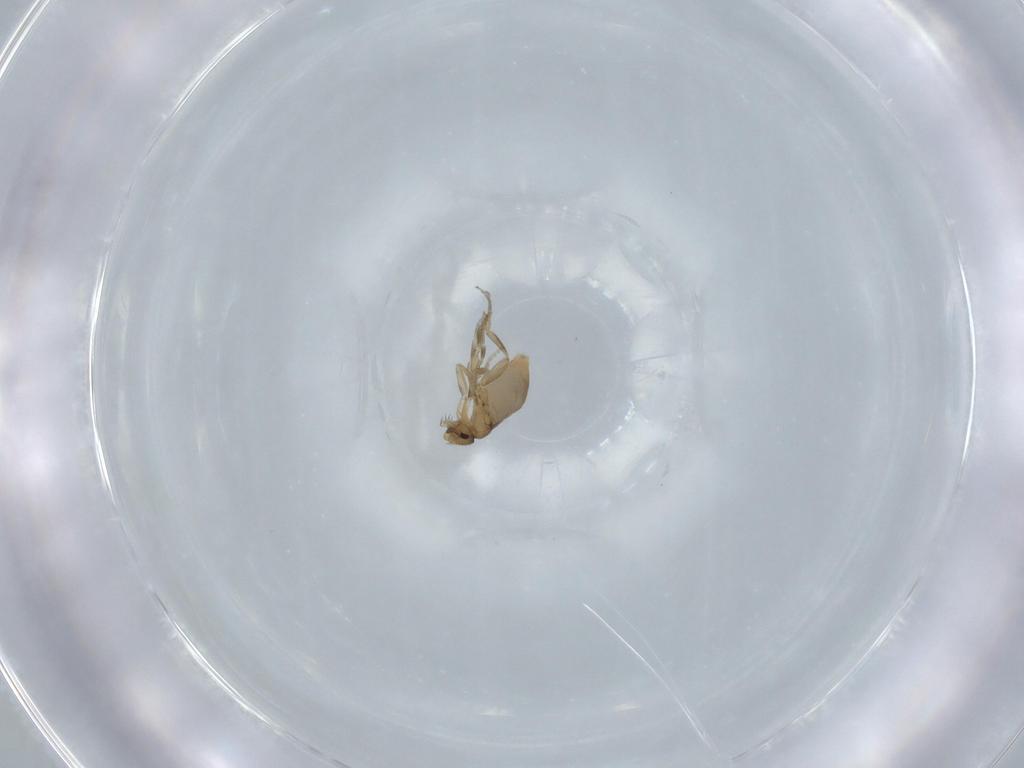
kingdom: Animalia
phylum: Arthropoda
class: Insecta
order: Diptera
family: Phoridae
